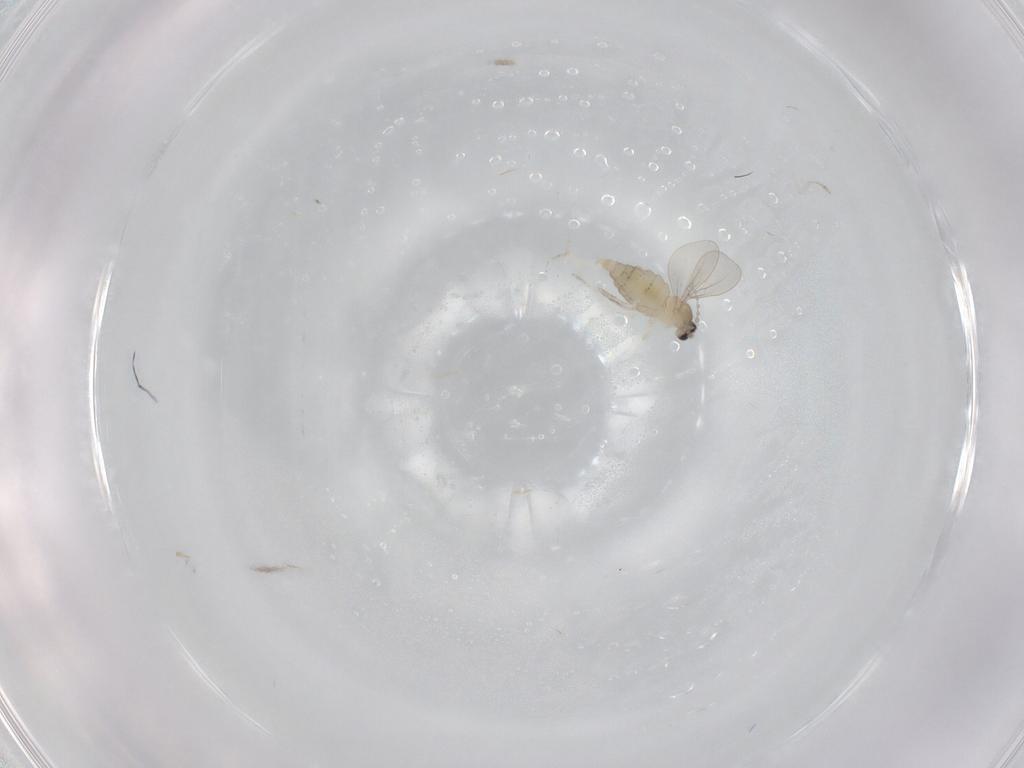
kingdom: Animalia
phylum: Arthropoda
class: Insecta
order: Diptera
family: Cecidomyiidae
